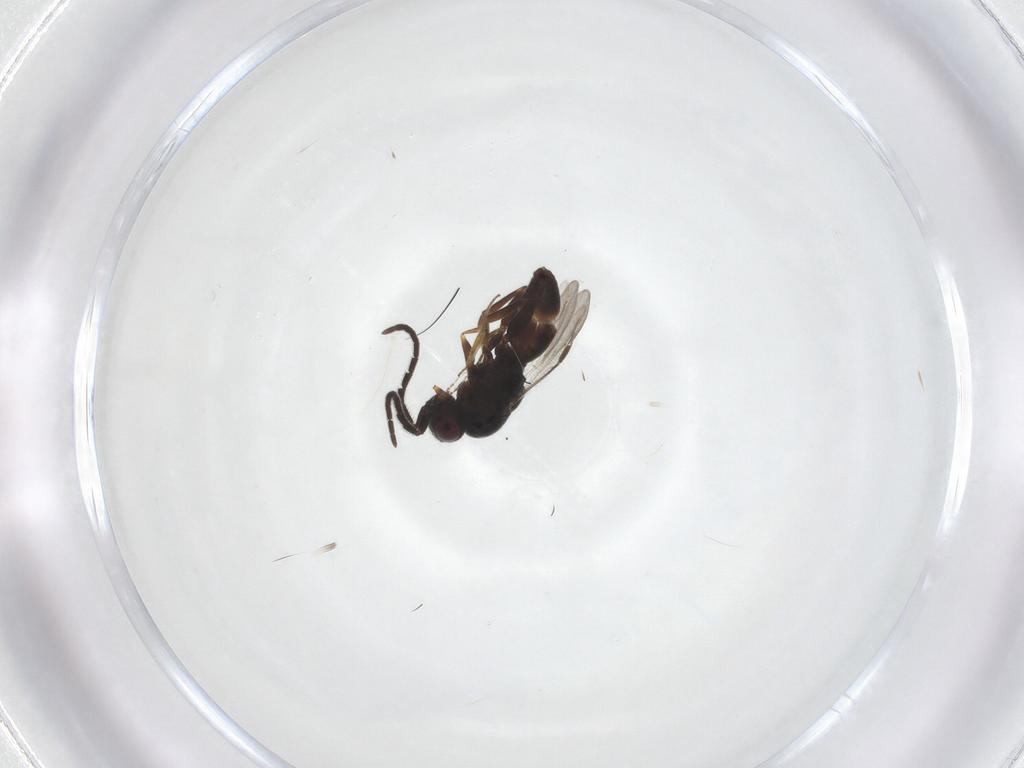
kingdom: Animalia
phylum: Arthropoda
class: Insecta
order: Hymenoptera
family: Megaspilidae
